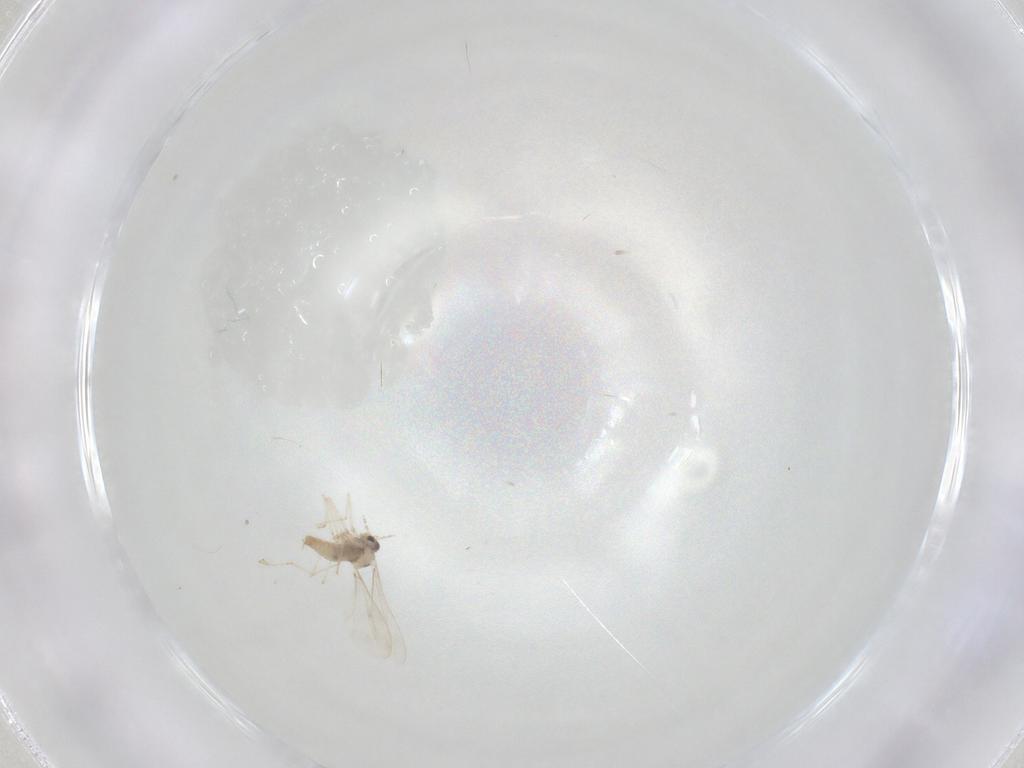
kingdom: Animalia
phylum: Arthropoda
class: Insecta
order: Diptera
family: Cecidomyiidae
